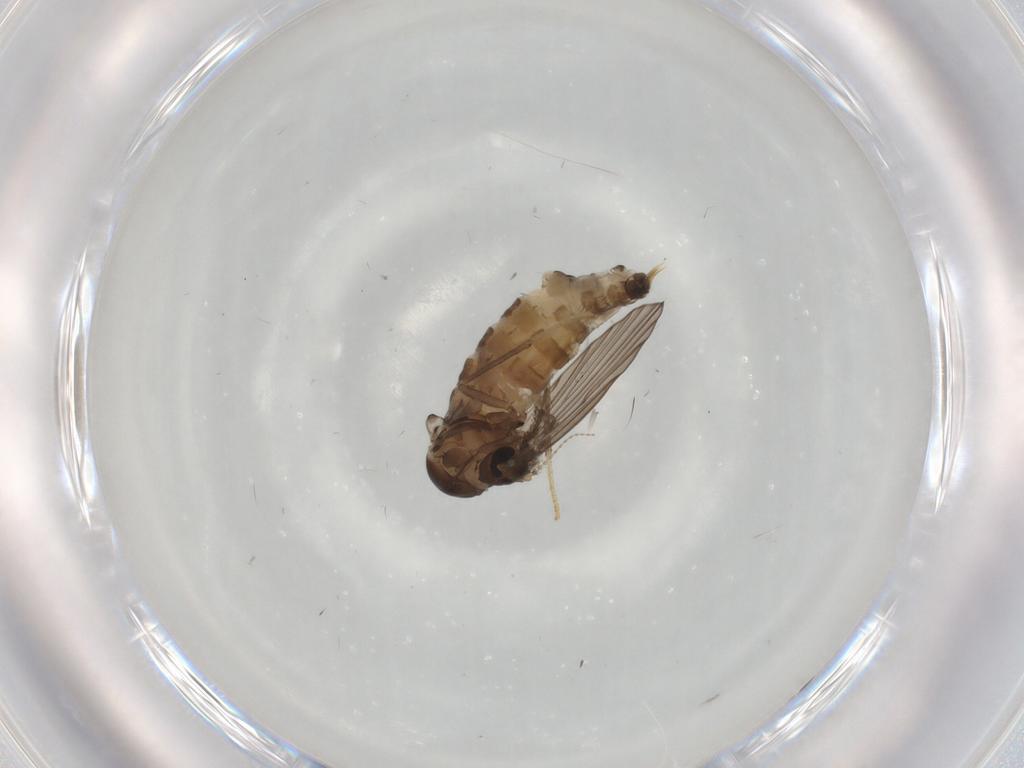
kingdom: Animalia
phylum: Arthropoda
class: Insecta
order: Diptera
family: Psychodidae
